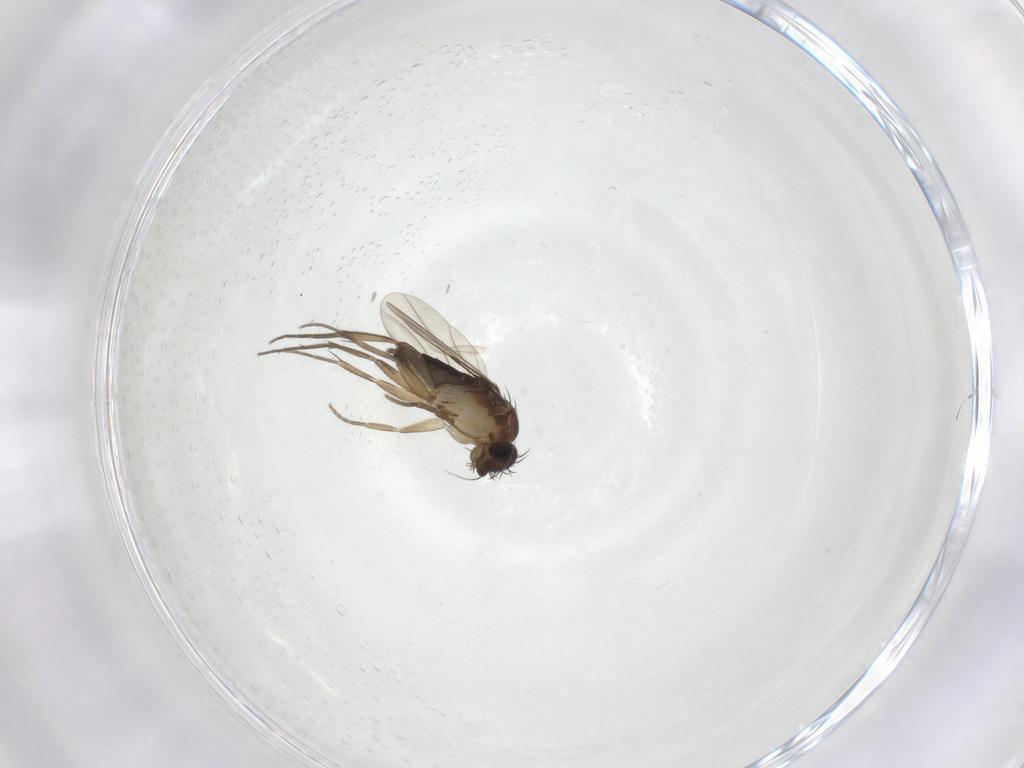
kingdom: Animalia
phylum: Arthropoda
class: Insecta
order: Diptera
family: Phoridae
